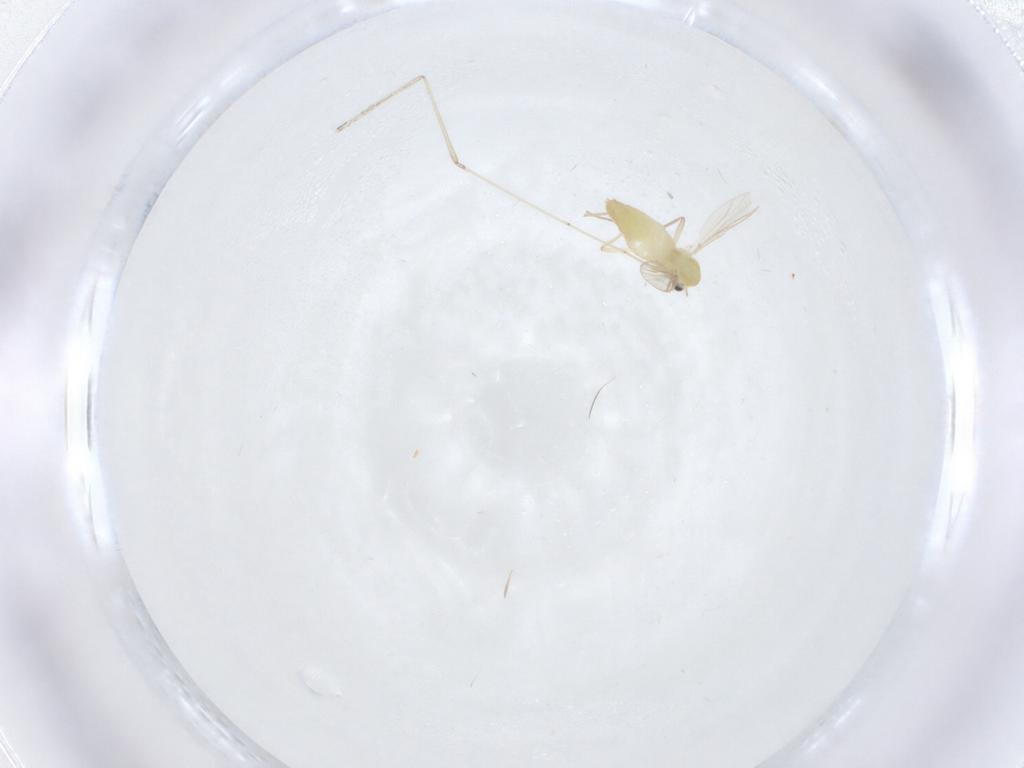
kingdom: Animalia
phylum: Arthropoda
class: Insecta
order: Diptera
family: Chironomidae
